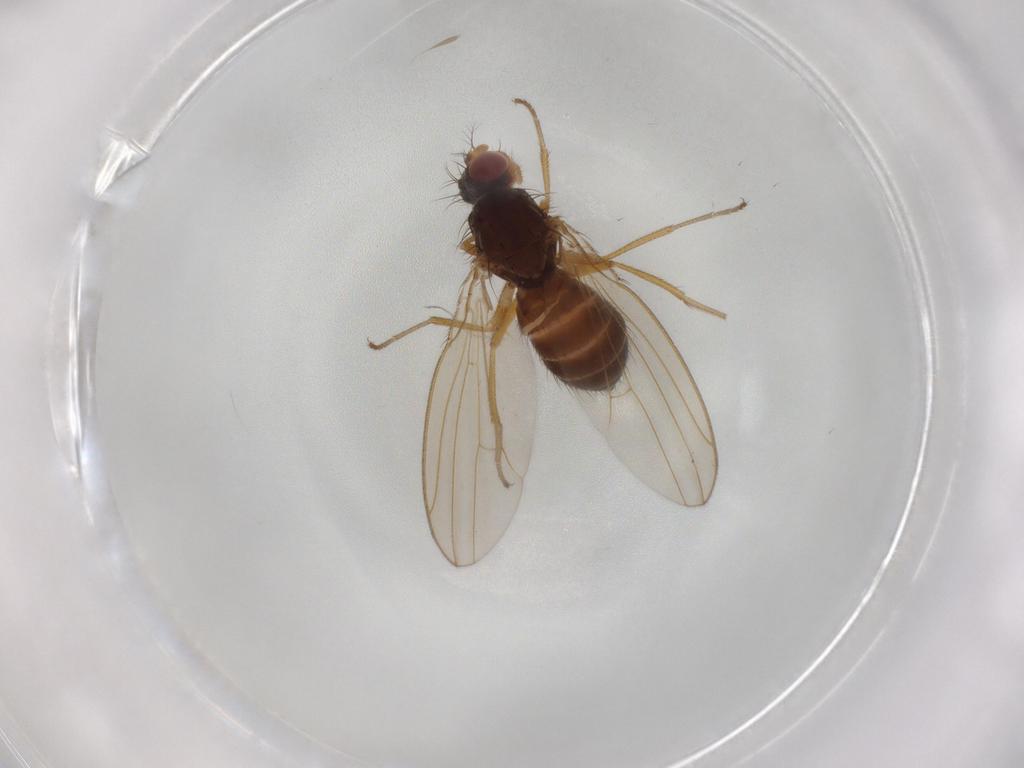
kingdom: Animalia
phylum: Arthropoda
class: Insecta
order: Diptera
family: Drosophilidae
